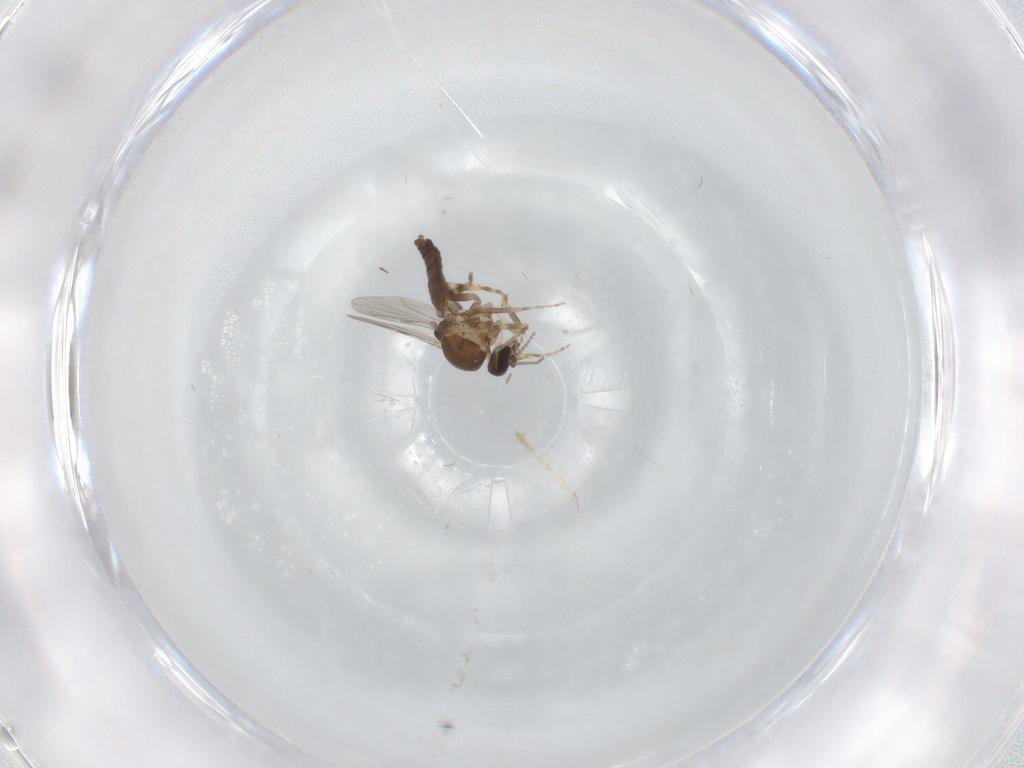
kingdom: Animalia
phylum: Arthropoda
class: Insecta
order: Diptera
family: Ceratopogonidae
